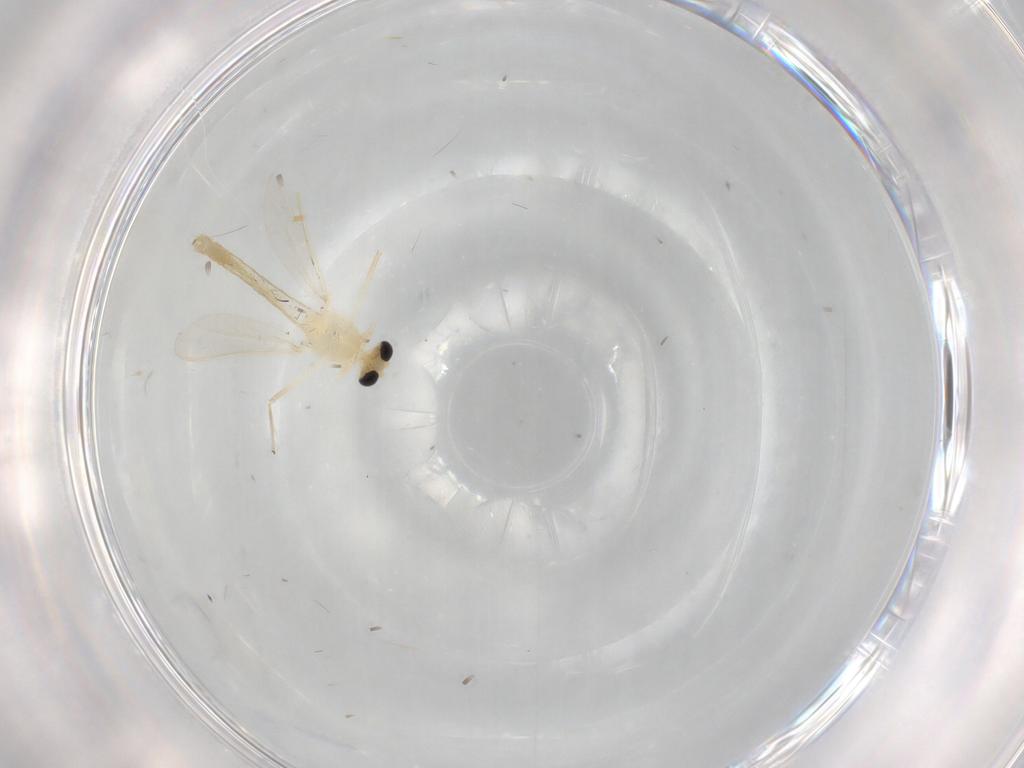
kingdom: Animalia
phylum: Arthropoda
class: Insecta
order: Diptera
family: Chironomidae
